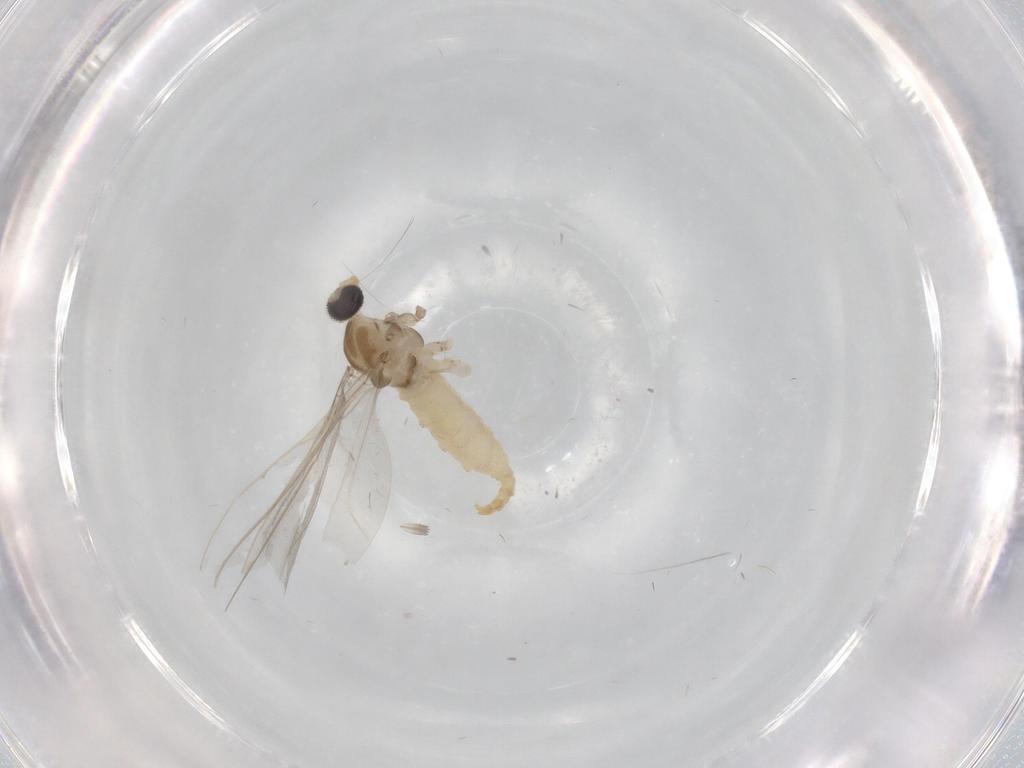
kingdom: Animalia
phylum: Arthropoda
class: Insecta
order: Diptera
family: Cecidomyiidae
